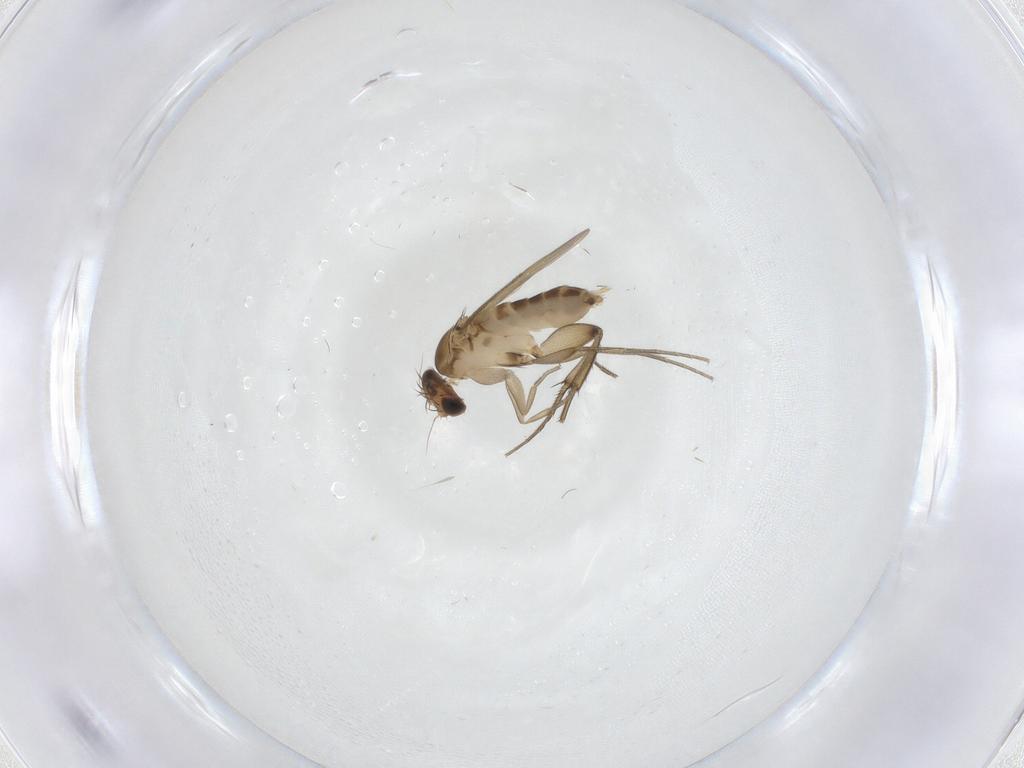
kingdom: Animalia
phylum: Arthropoda
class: Insecta
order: Diptera
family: Phoridae
